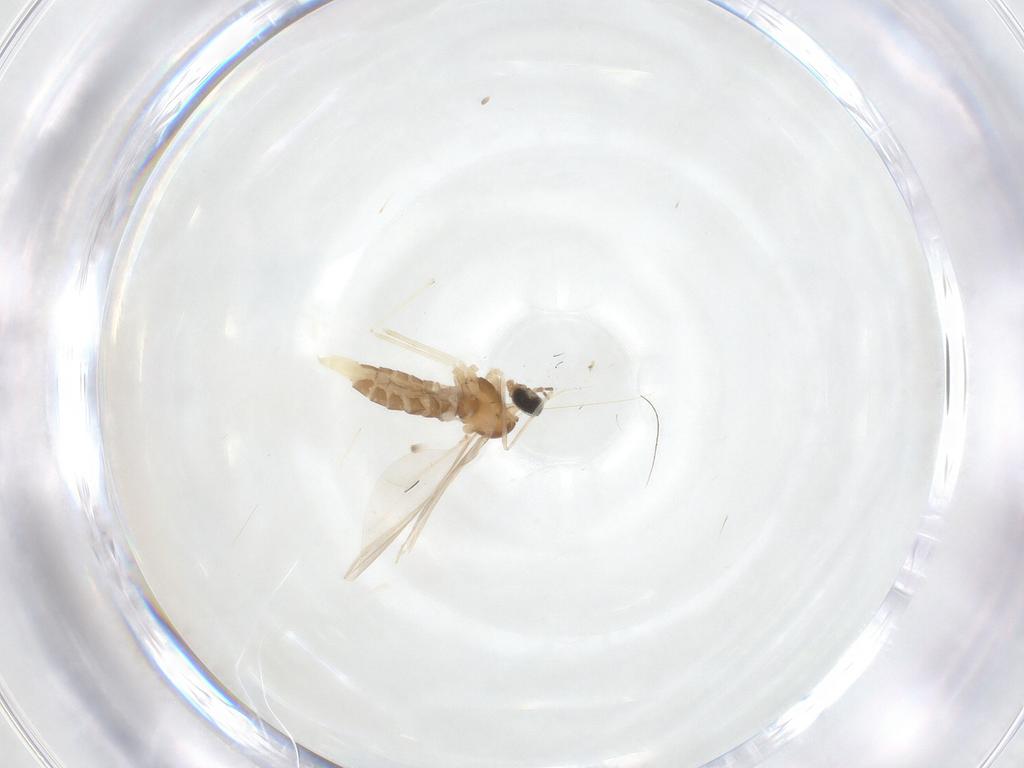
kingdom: Animalia
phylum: Arthropoda
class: Insecta
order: Diptera
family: Cecidomyiidae
